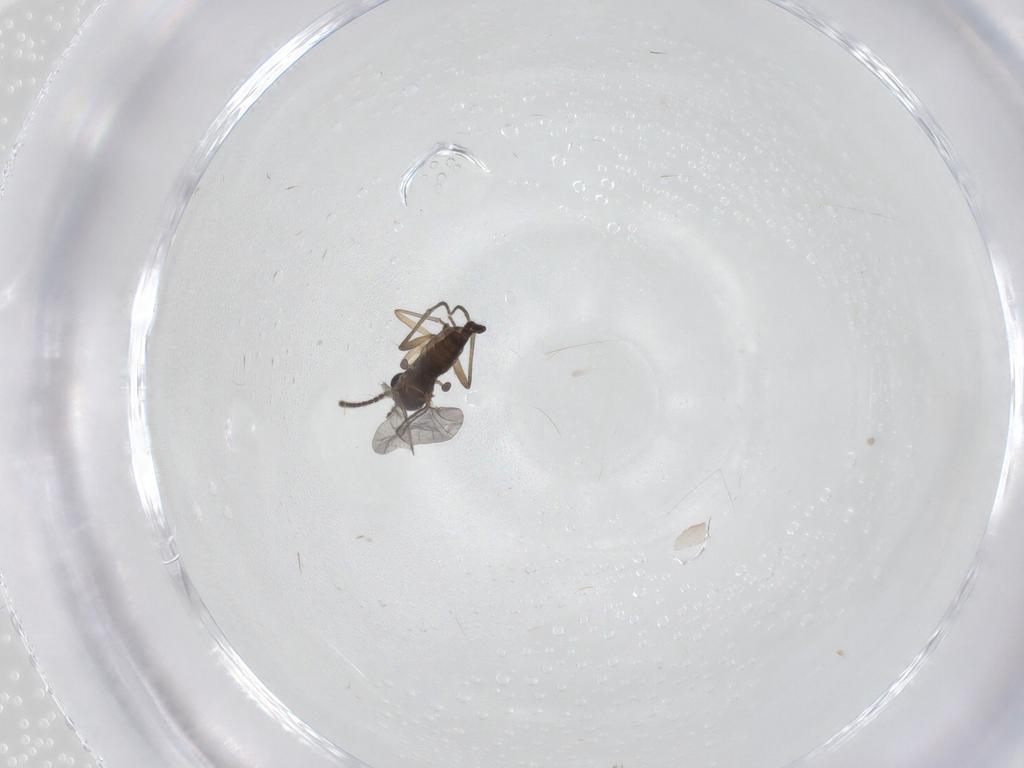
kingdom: Animalia
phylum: Arthropoda
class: Insecta
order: Diptera
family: Sciaridae
